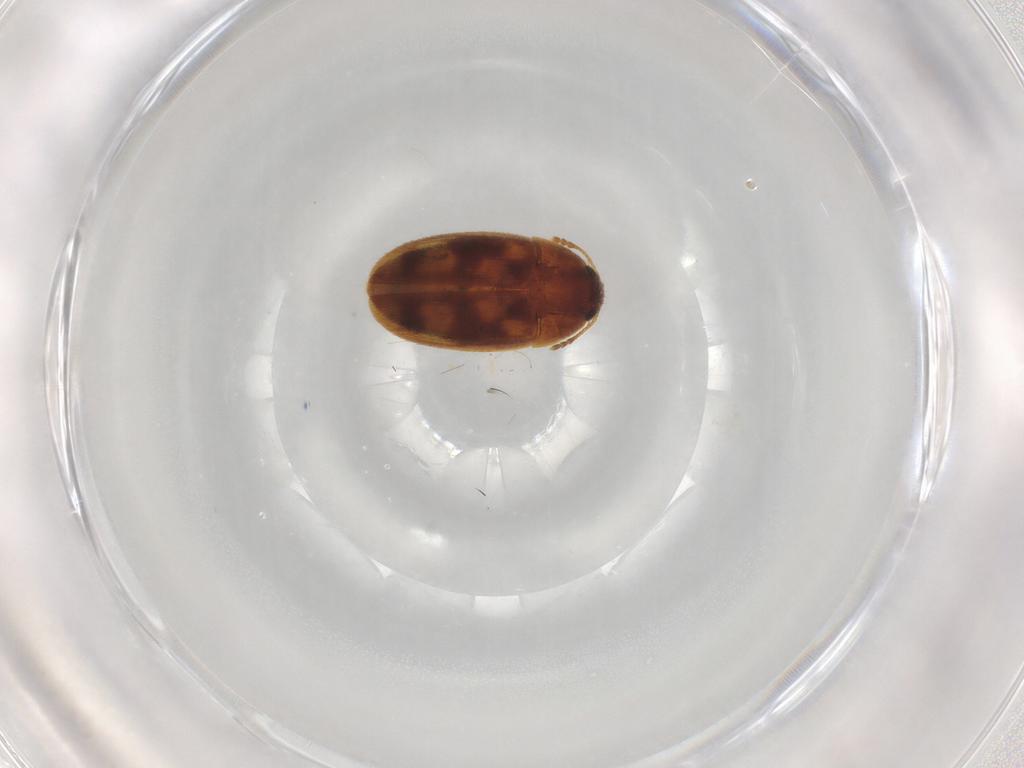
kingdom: Animalia
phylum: Arthropoda
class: Insecta
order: Coleoptera
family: Mycetophagidae
